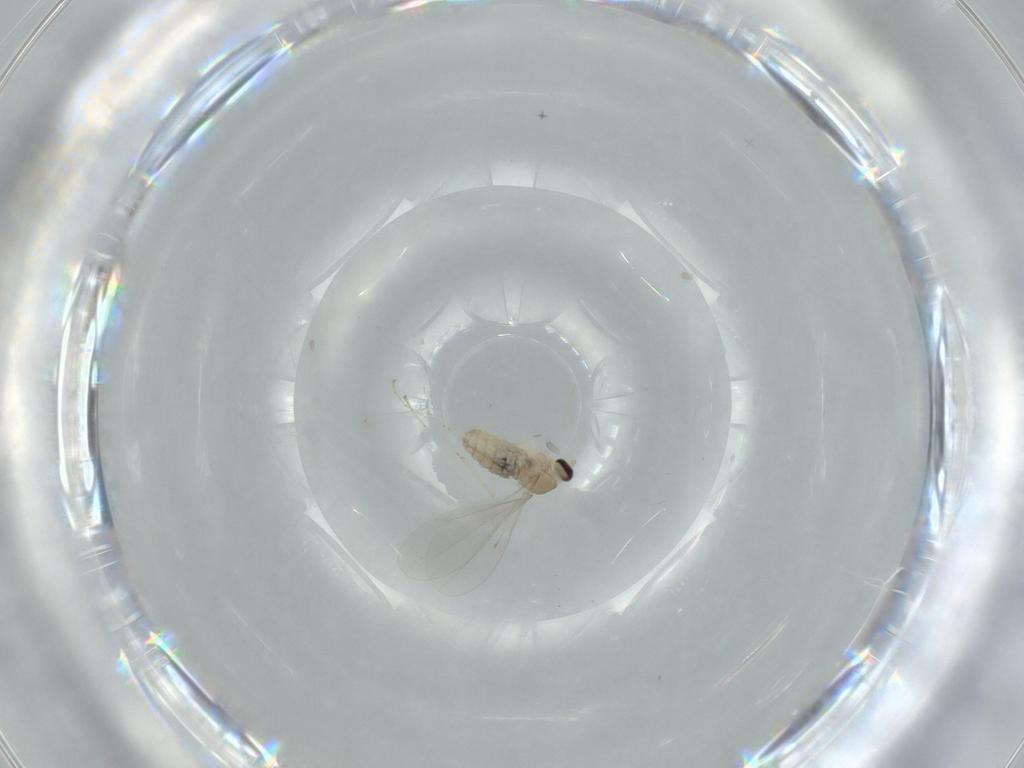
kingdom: Animalia
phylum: Arthropoda
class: Insecta
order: Diptera
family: Cecidomyiidae
